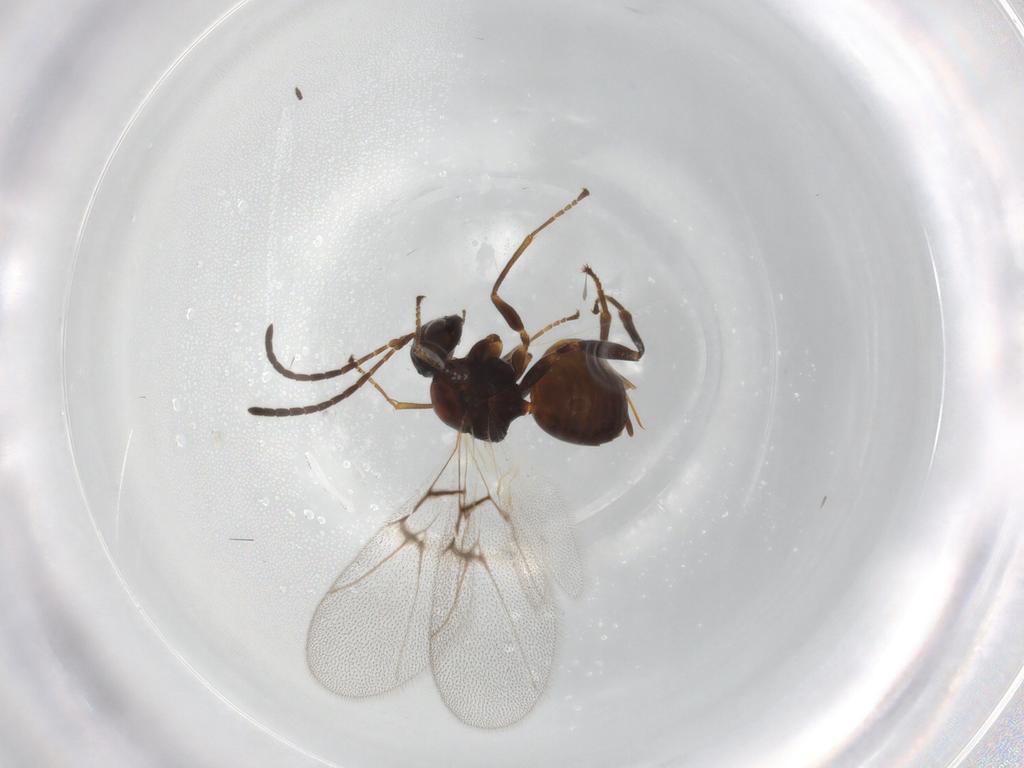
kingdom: Animalia
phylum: Arthropoda
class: Insecta
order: Hymenoptera
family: Cynipidae
